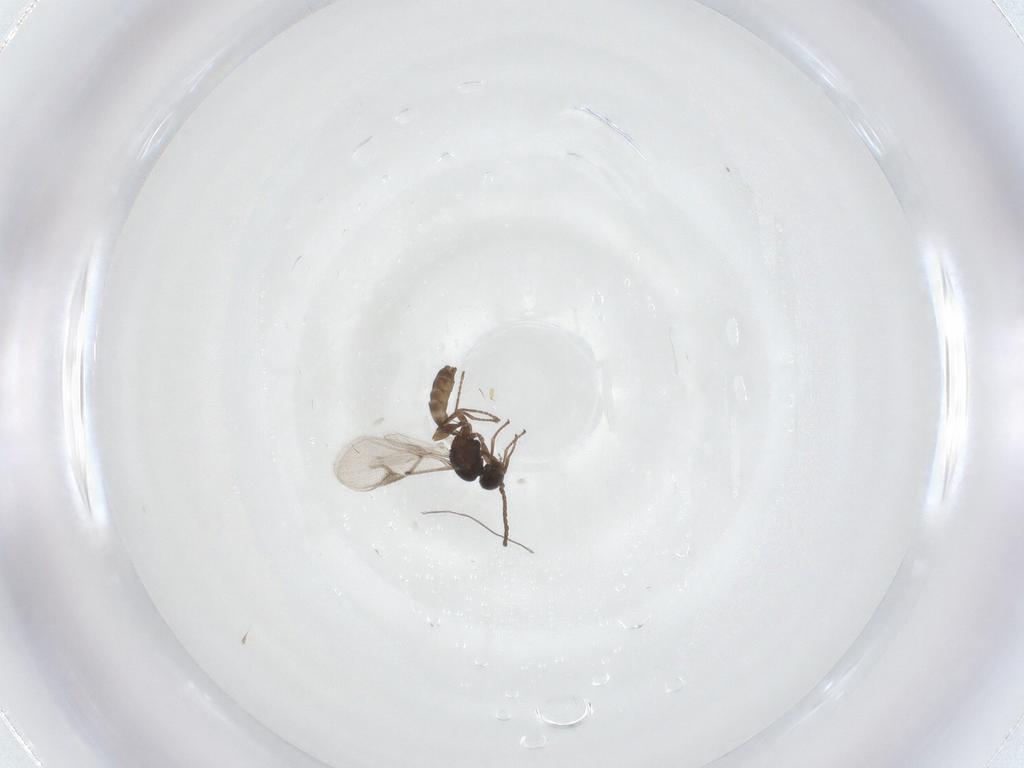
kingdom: Animalia
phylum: Arthropoda
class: Insecta
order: Hymenoptera
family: Braconidae
